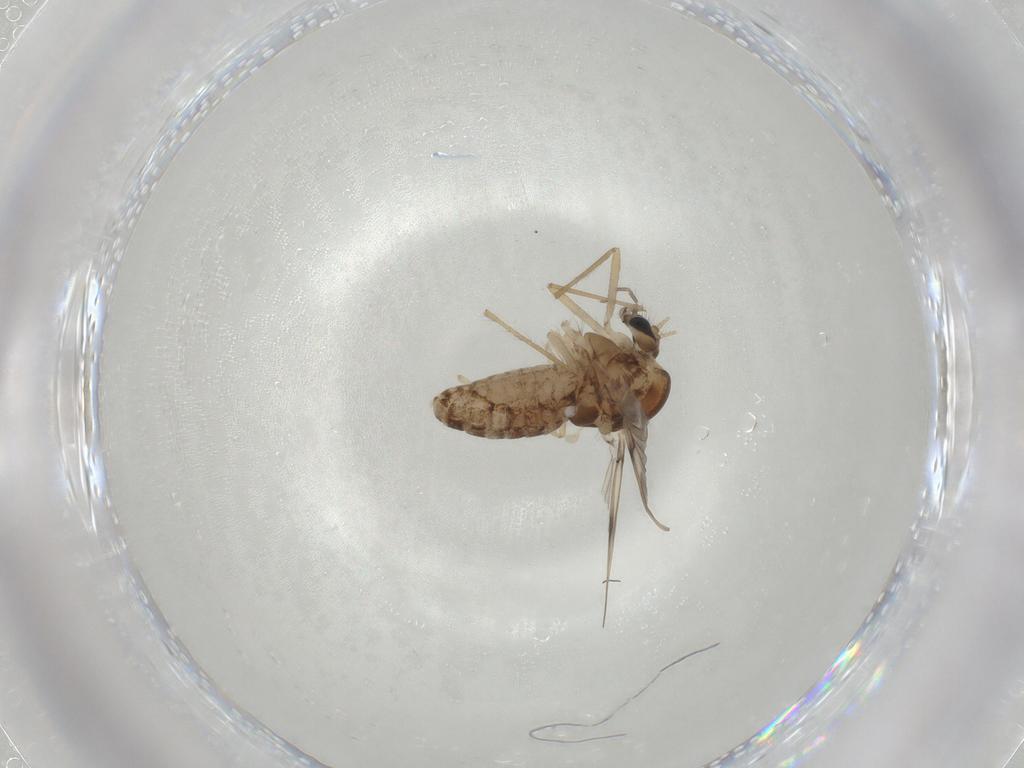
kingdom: Animalia
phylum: Arthropoda
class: Insecta
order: Diptera
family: Chironomidae
